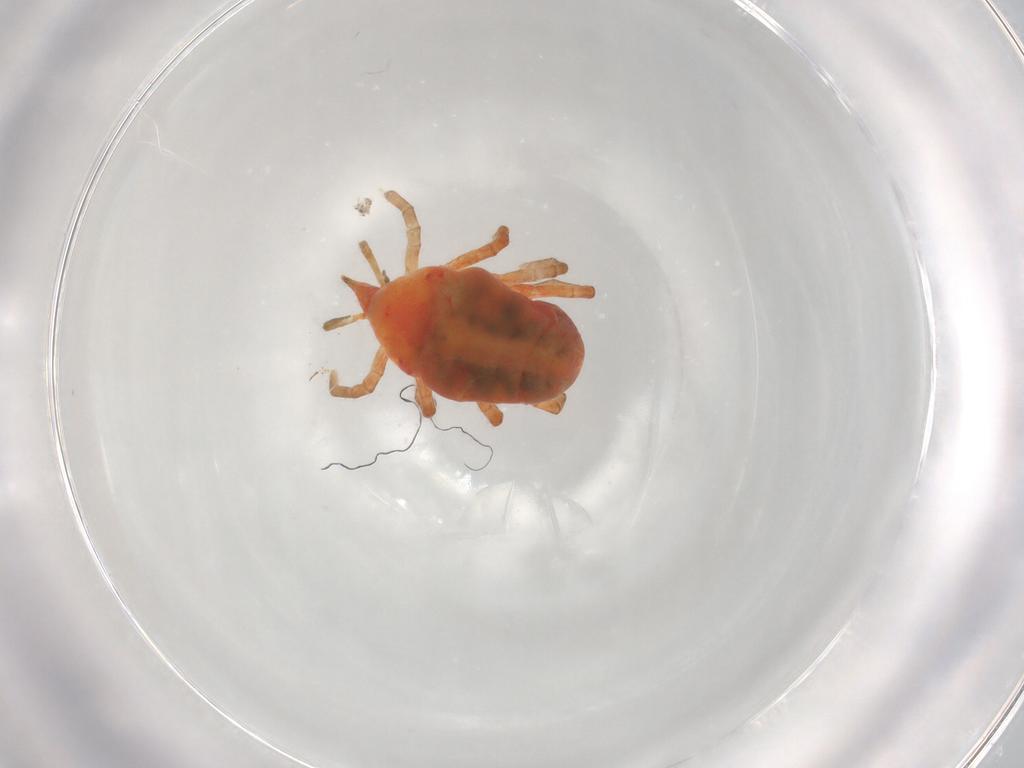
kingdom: Animalia
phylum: Arthropoda
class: Arachnida
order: Trombidiformes
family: Bdellidae
